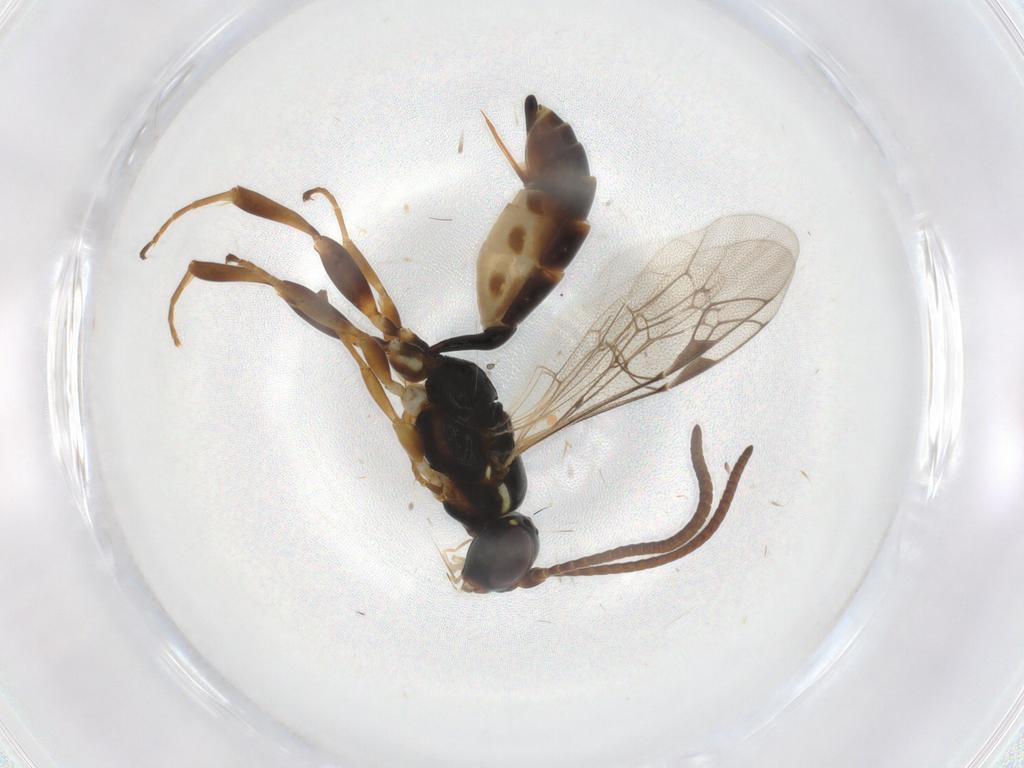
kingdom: Animalia
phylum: Arthropoda
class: Insecta
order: Hymenoptera
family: Ichneumonidae
